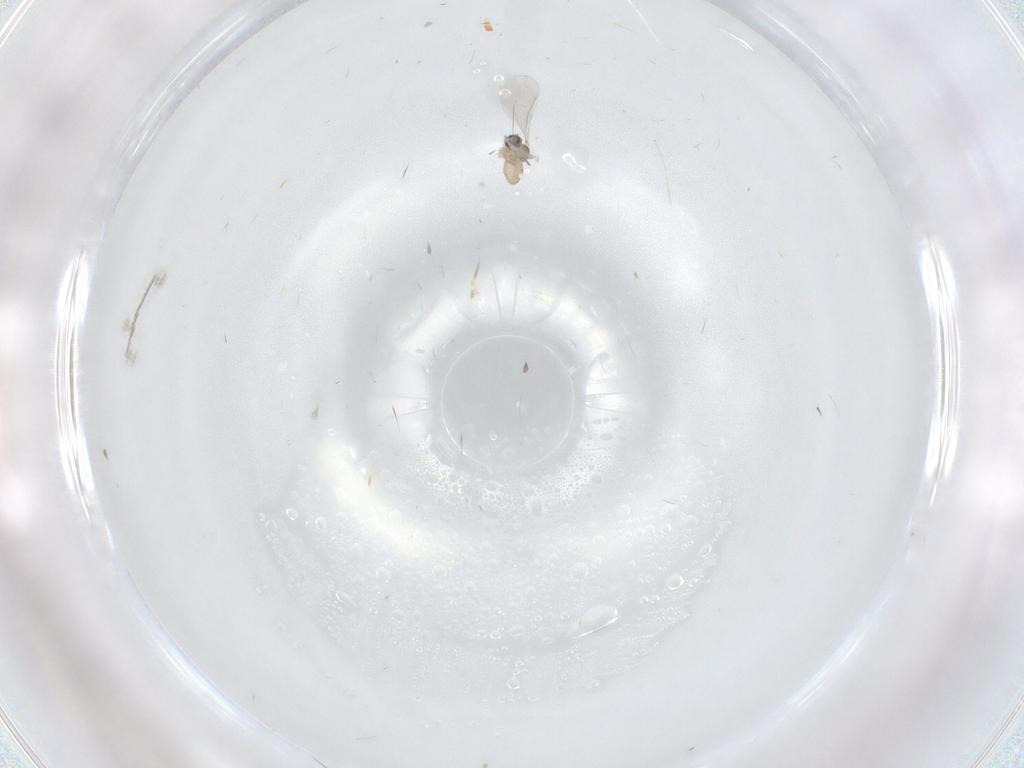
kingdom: Animalia
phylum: Arthropoda
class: Insecta
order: Diptera
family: Cecidomyiidae
